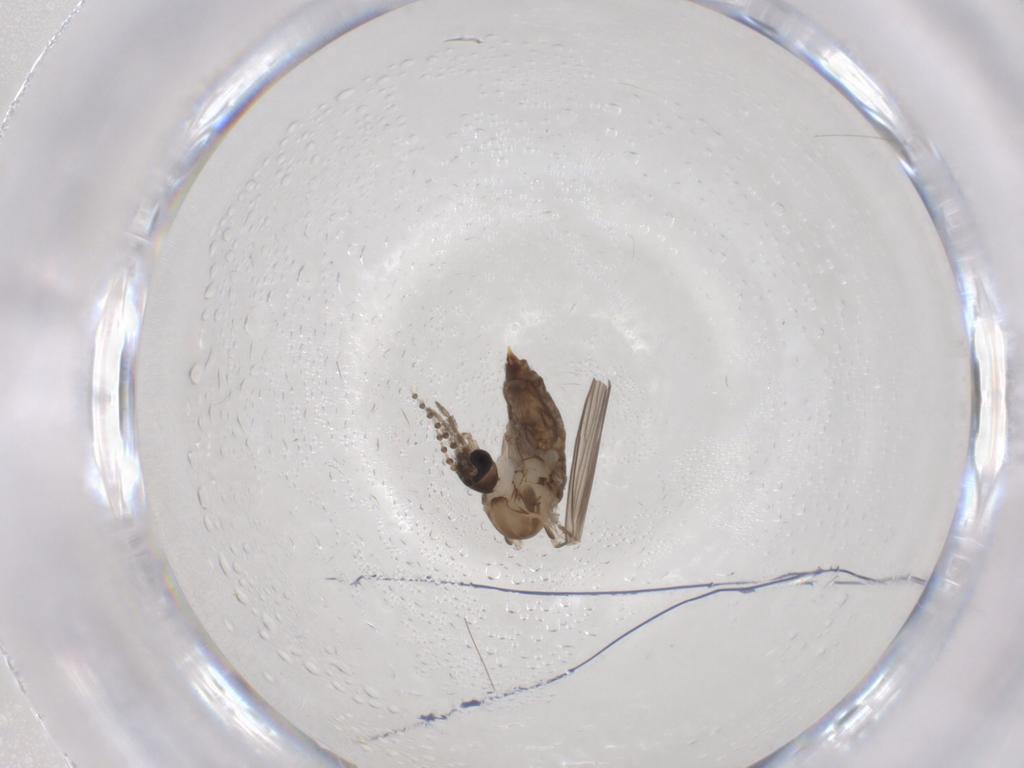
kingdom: Animalia
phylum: Arthropoda
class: Insecta
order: Diptera
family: Psychodidae
